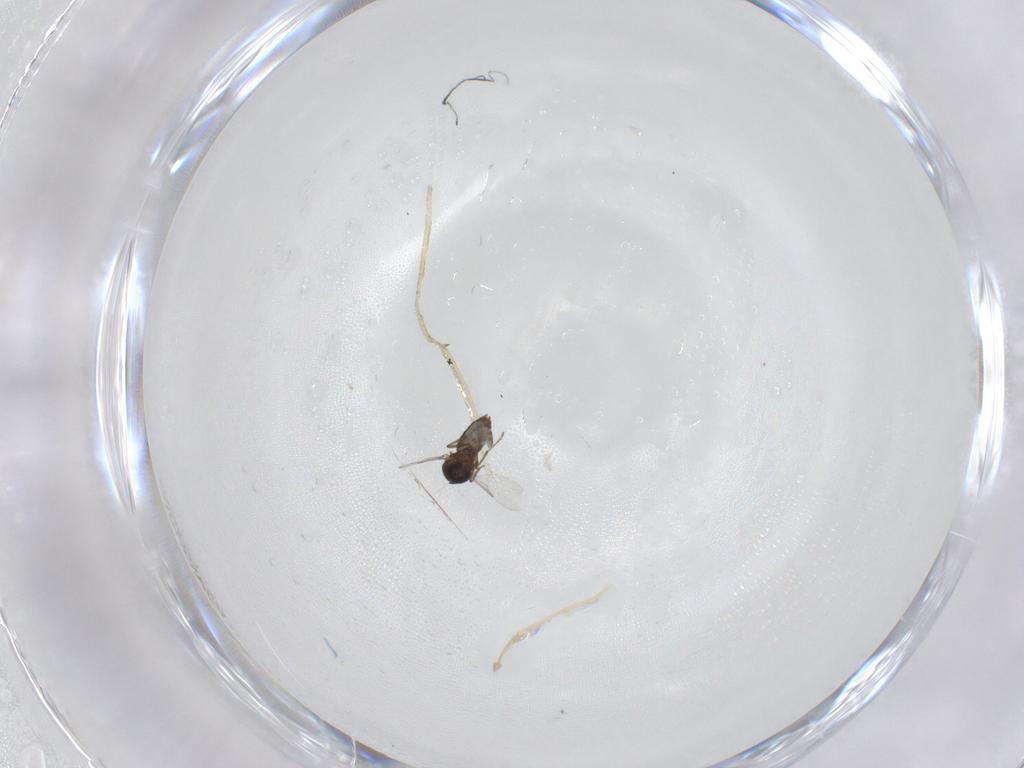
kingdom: Animalia
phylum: Arthropoda
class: Insecta
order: Diptera
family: Ceratopogonidae
